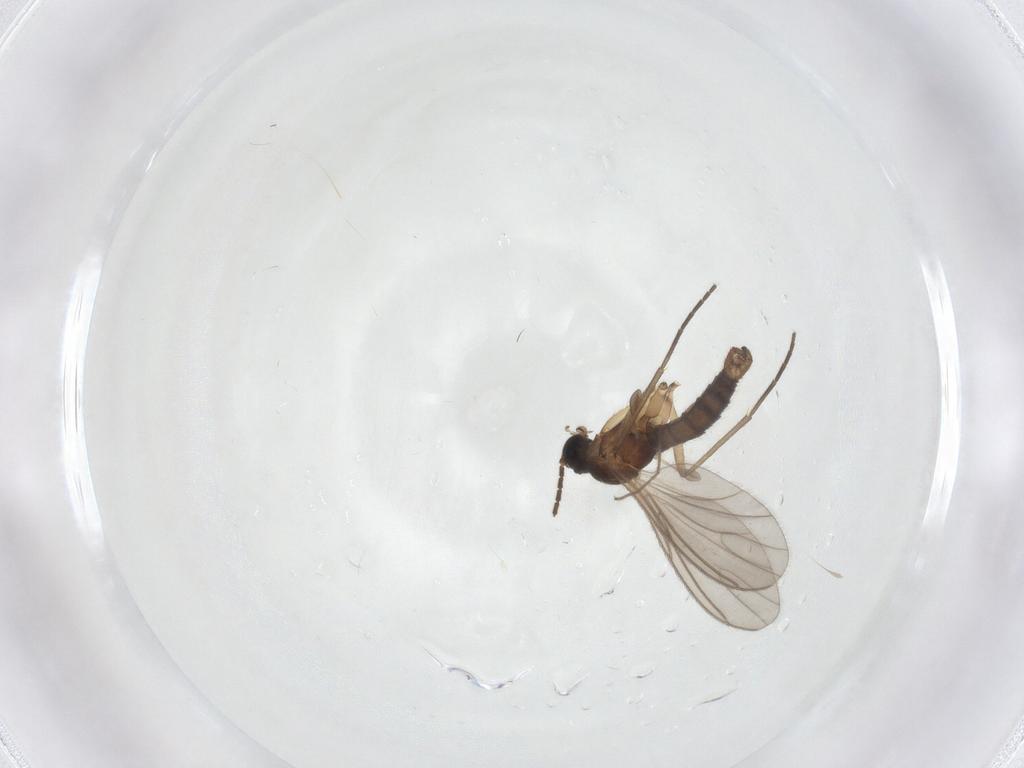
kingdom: Animalia
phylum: Arthropoda
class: Insecta
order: Diptera
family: Sciaridae
